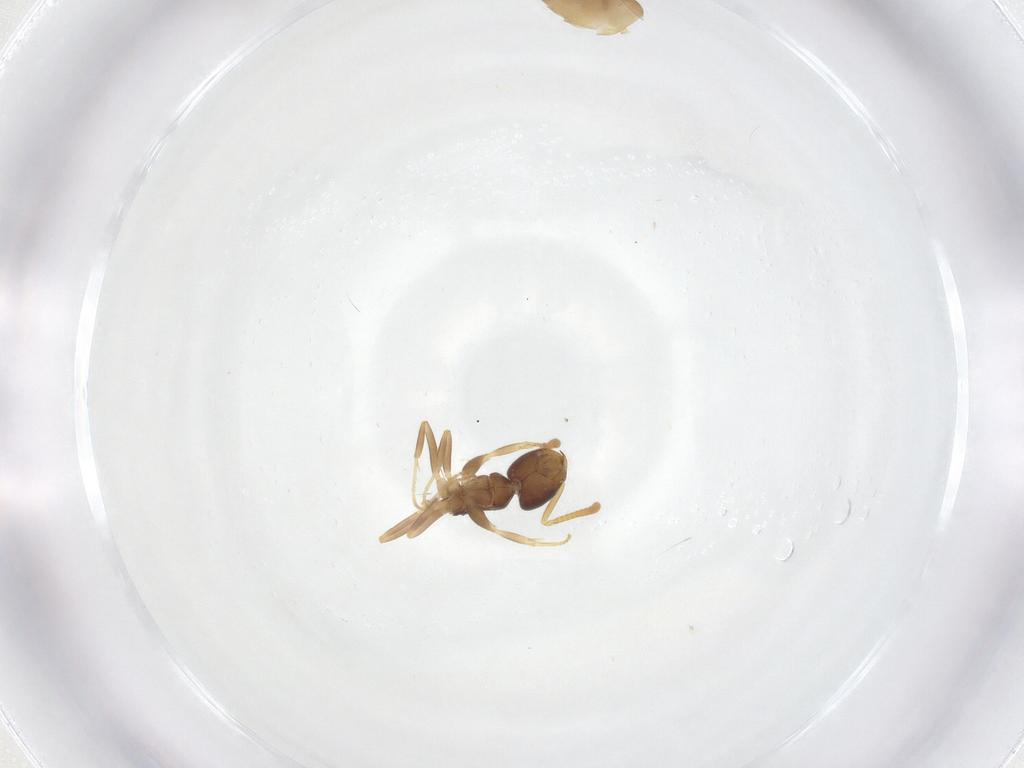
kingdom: Animalia
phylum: Arthropoda
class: Insecta
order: Hymenoptera
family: Formicidae
